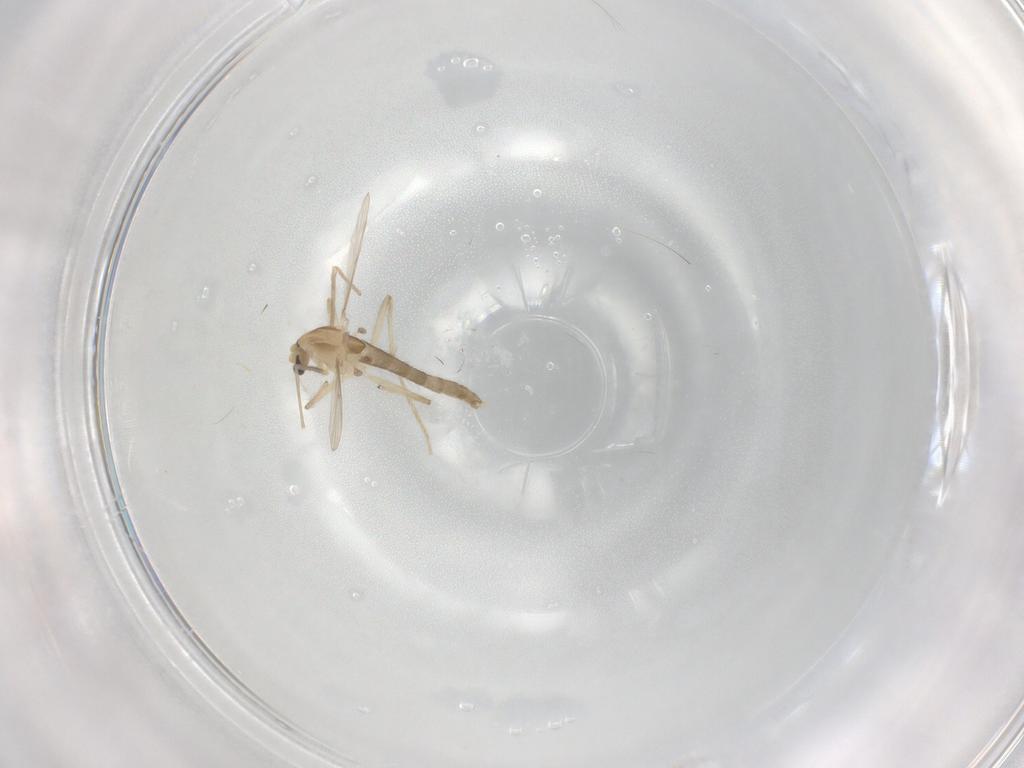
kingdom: Animalia
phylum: Arthropoda
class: Insecta
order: Diptera
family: Chironomidae
